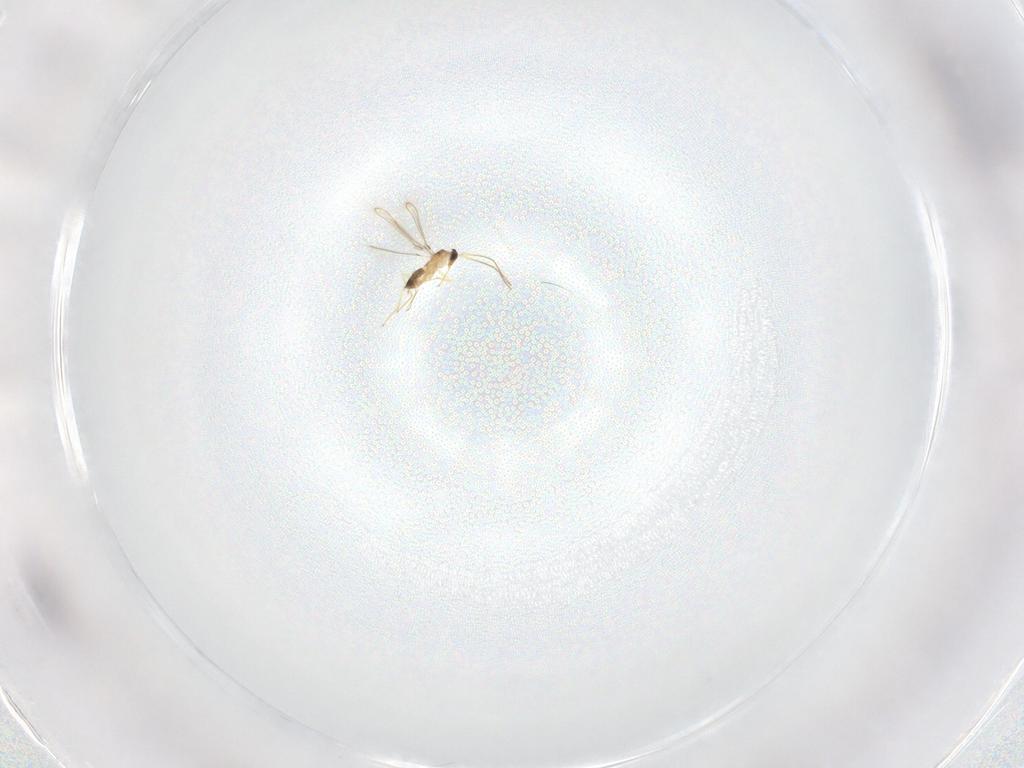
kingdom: Animalia
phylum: Arthropoda
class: Insecta
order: Hymenoptera
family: Mymaridae
